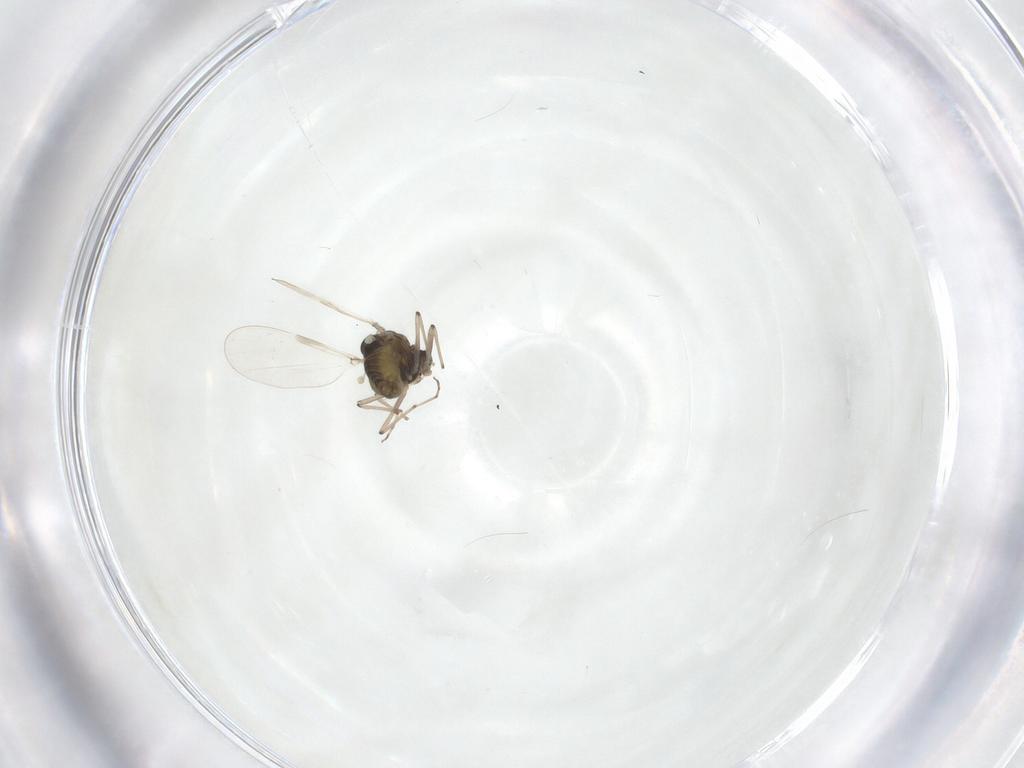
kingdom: Animalia
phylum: Arthropoda
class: Insecta
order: Diptera
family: Chironomidae
